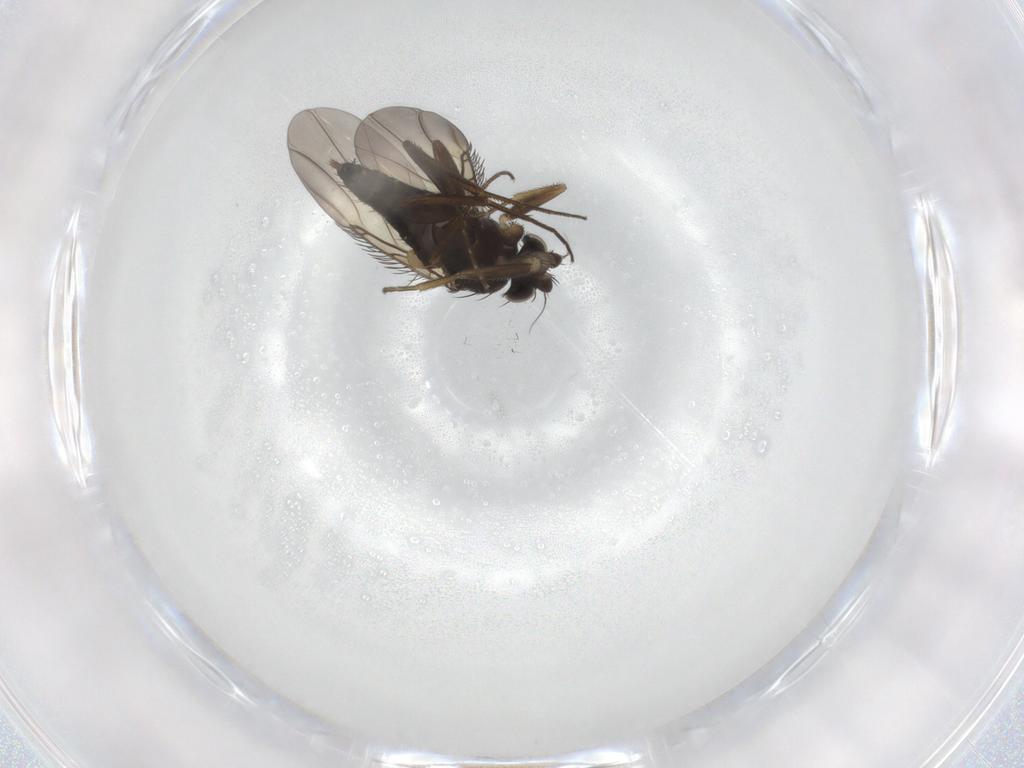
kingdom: Animalia
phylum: Arthropoda
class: Insecta
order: Diptera
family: Phoridae
